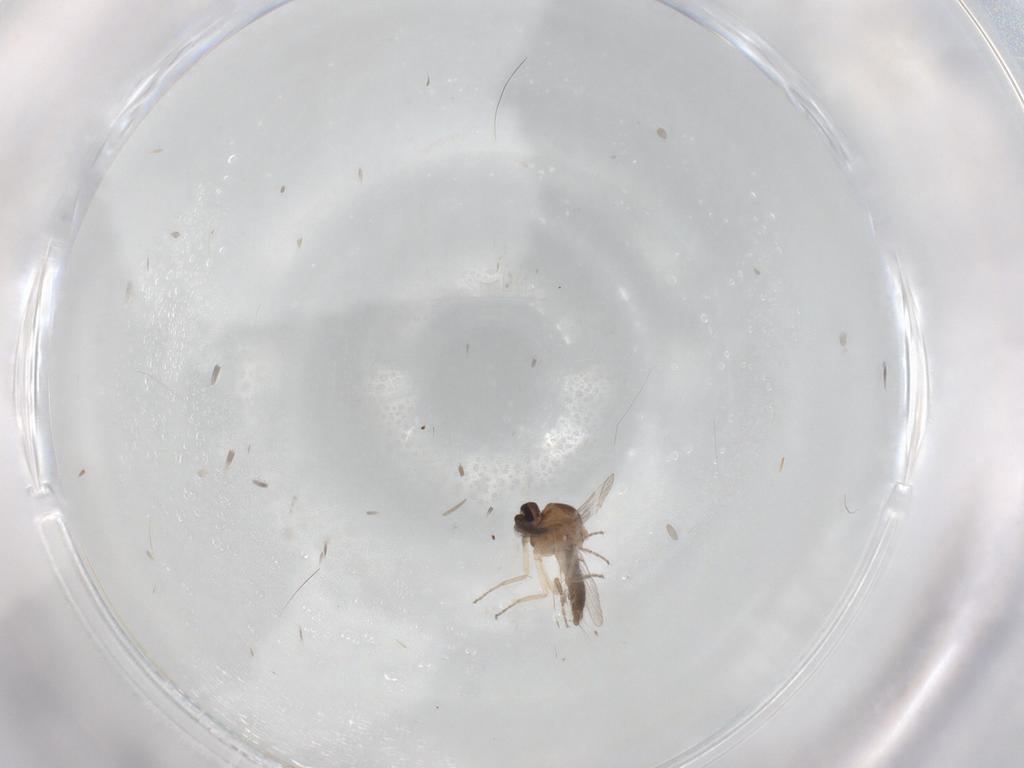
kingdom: Animalia
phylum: Arthropoda
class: Insecta
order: Diptera
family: Ceratopogonidae
